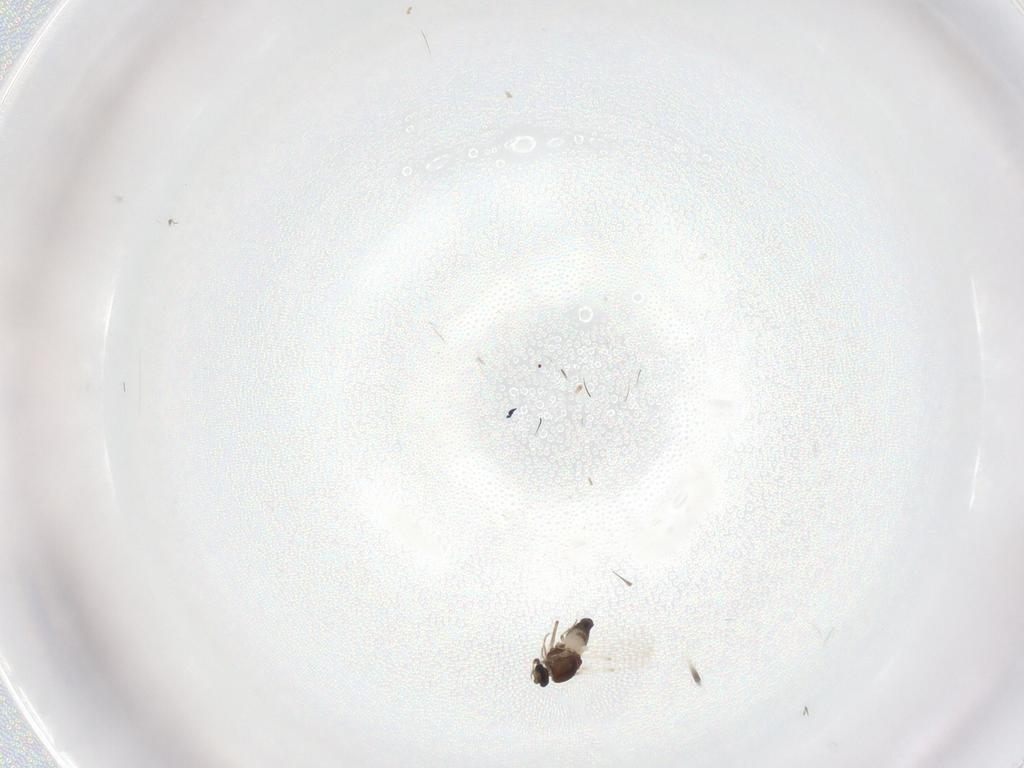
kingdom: Animalia
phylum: Arthropoda
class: Insecta
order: Diptera
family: Ceratopogonidae
